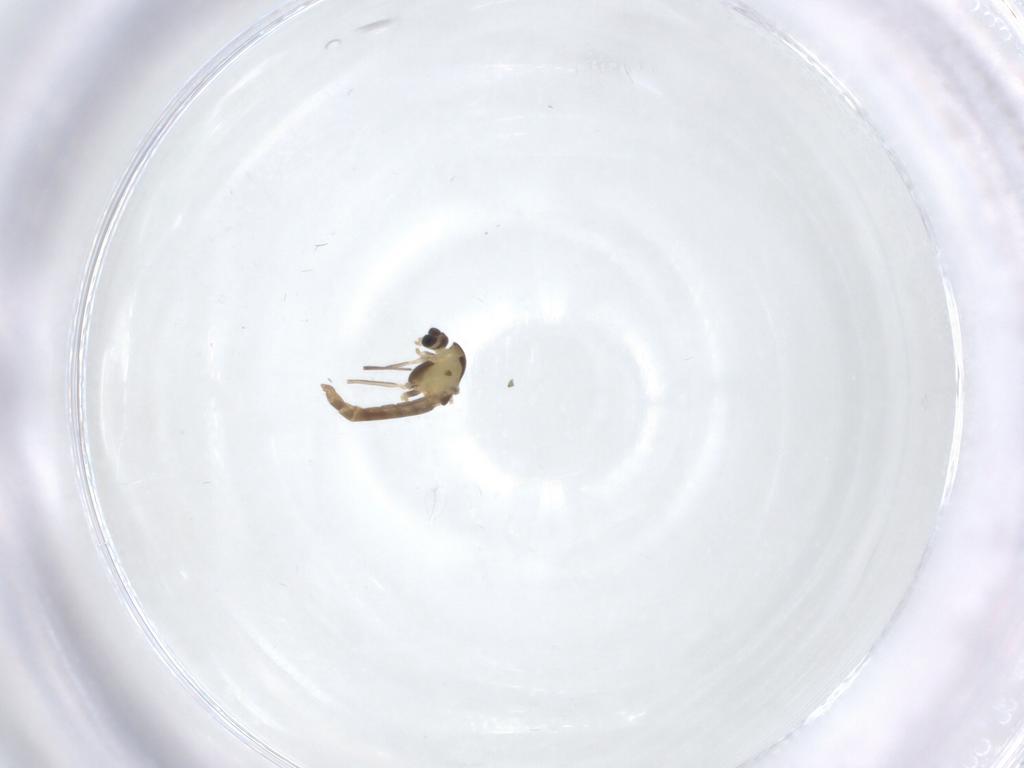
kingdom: Animalia
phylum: Arthropoda
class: Insecta
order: Diptera
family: Chironomidae
